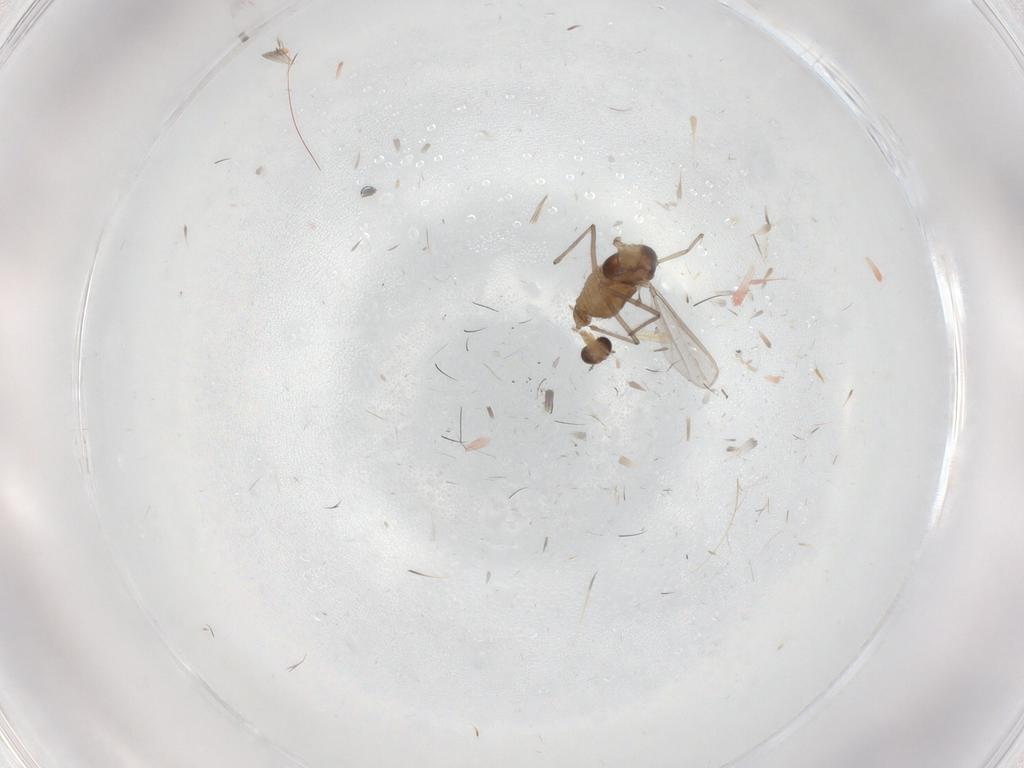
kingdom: Animalia
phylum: Arthropoda
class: Insecta
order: Diptera
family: Chironomidae
